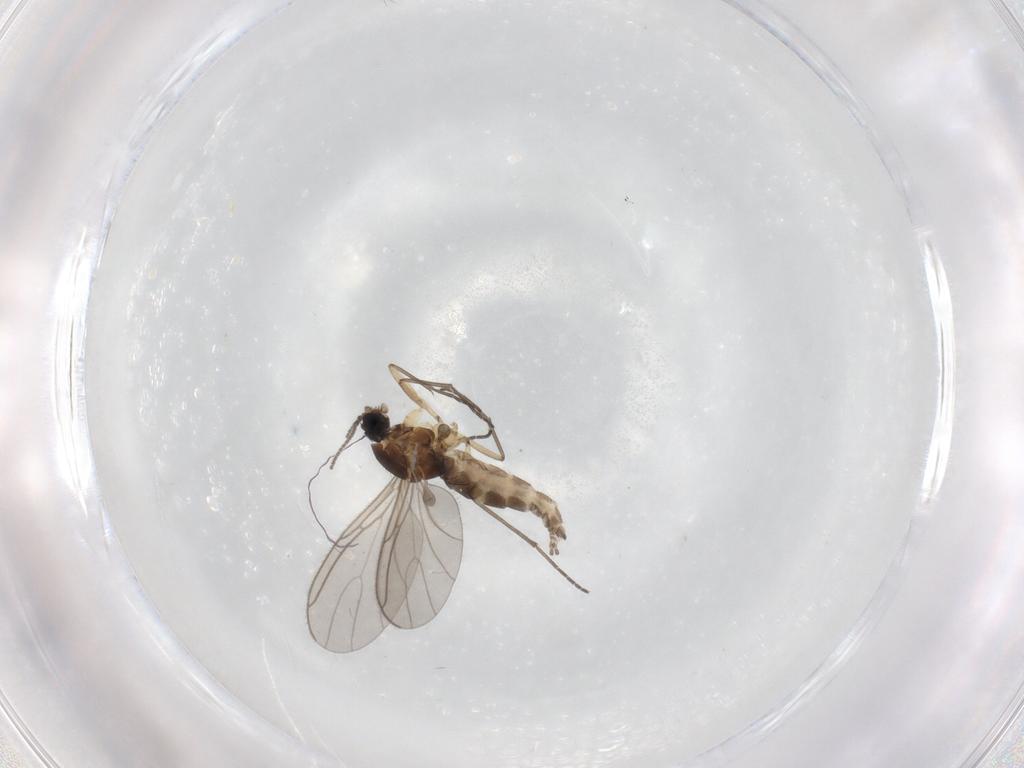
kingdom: Animalia
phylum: Arthropoda
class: Insecta
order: Diptera
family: Sciaridae
